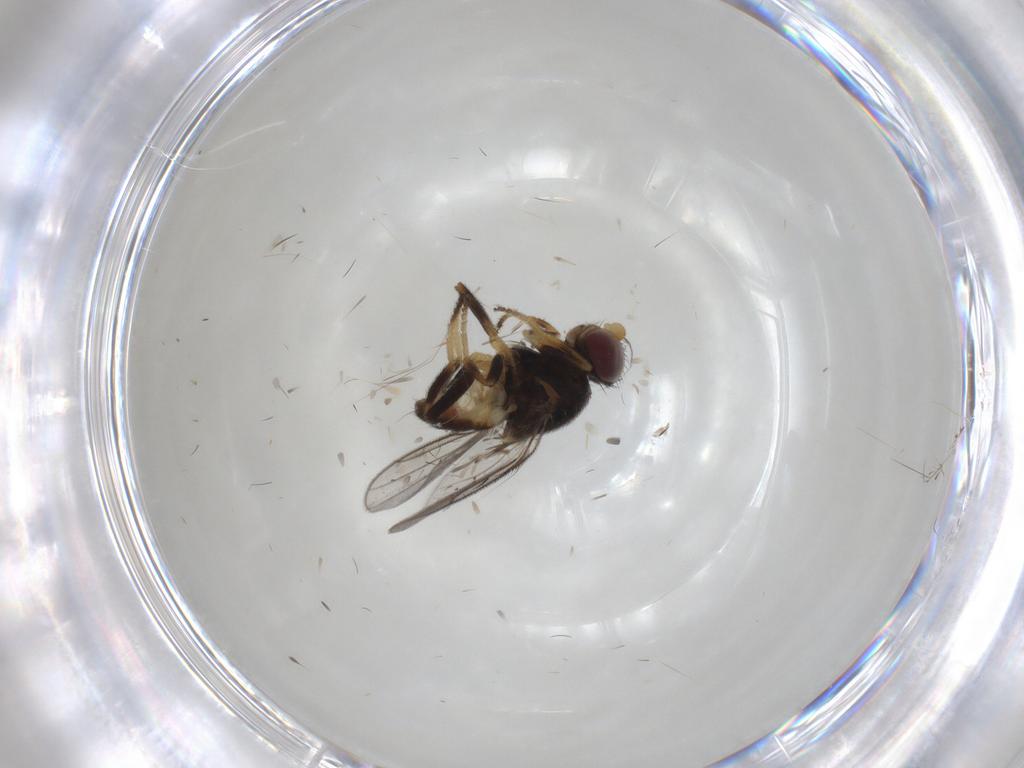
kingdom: Animalia
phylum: Arthropoda
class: Insecta
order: Diptera
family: Chloropidae
